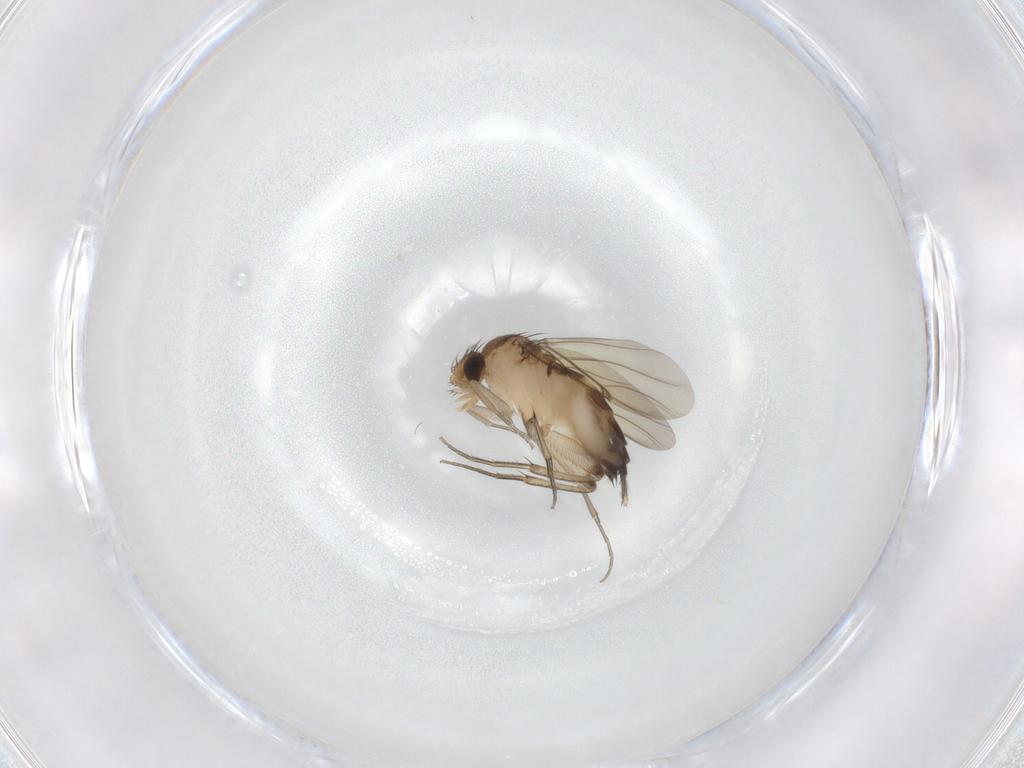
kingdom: Animalia
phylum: Arthropoda
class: Insecta
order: Diptera
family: Phoridae
